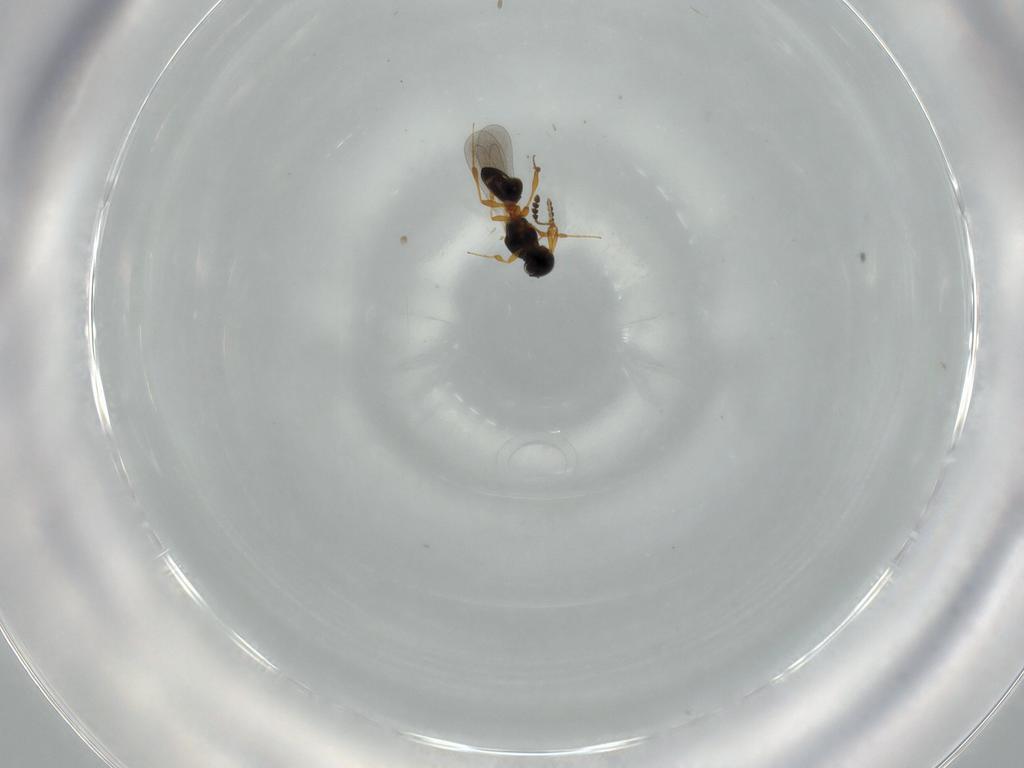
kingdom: Animalia
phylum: Arthropoda
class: Insecta
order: Hymenoptera
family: Platygastridae
